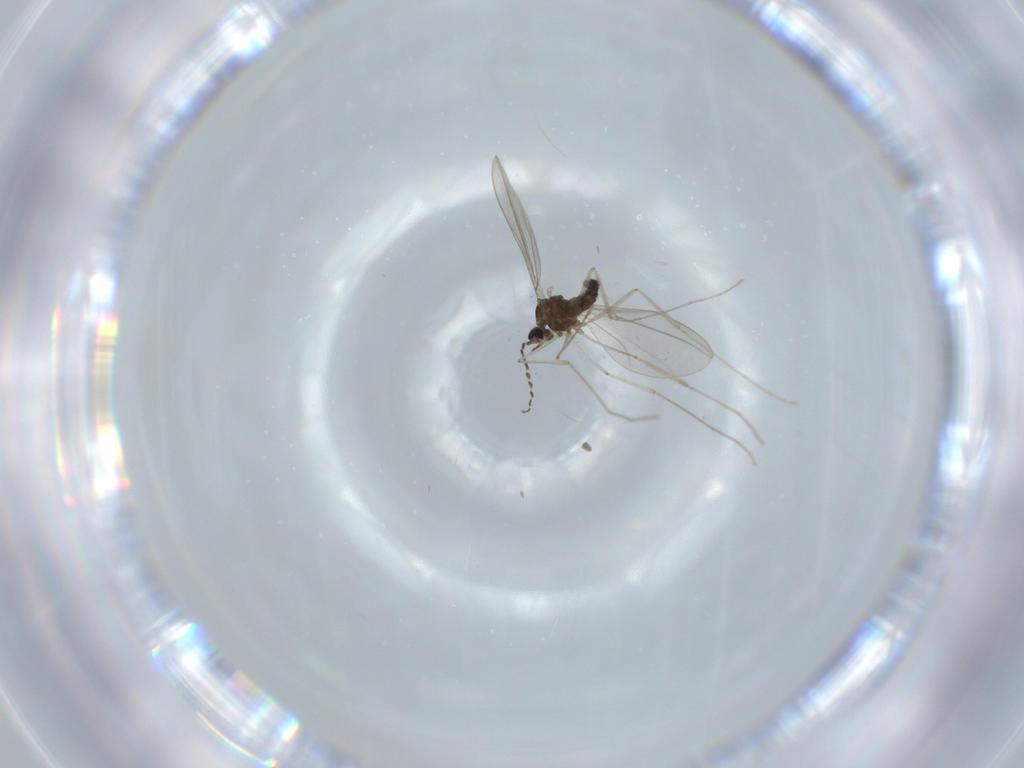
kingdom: Animalia
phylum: Arthropoda
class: Insecta
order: Diptera
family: Cecidomyiidae
